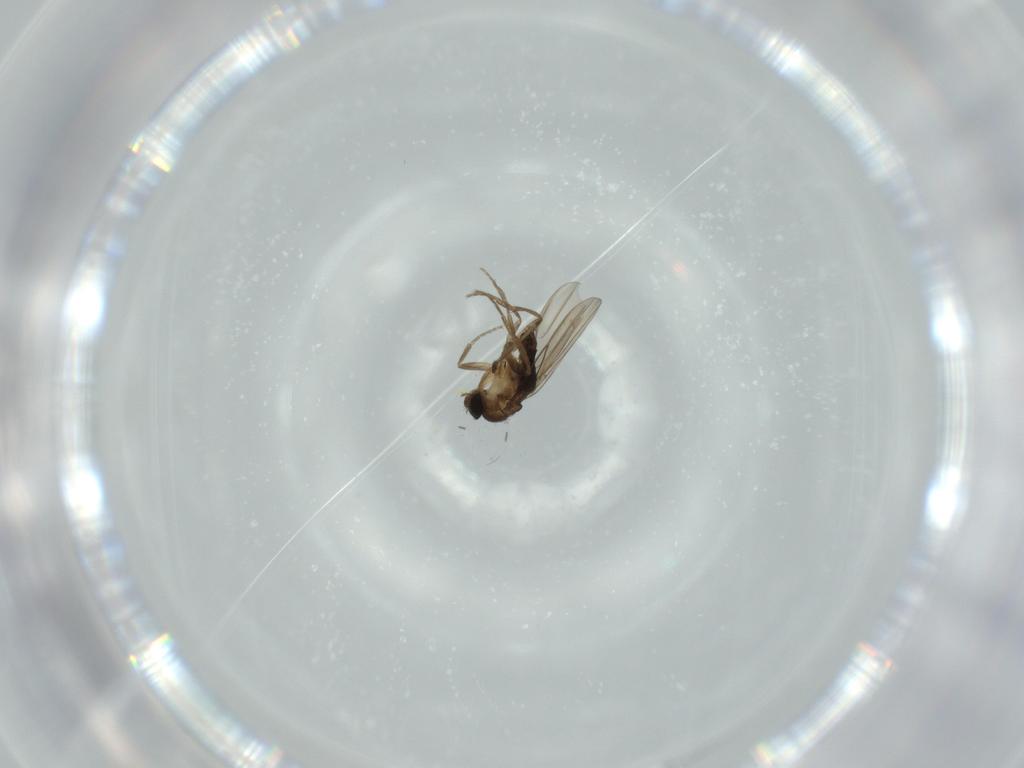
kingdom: Animalia
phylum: Arthropoda
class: Insecta
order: Diptera
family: Phoridae
